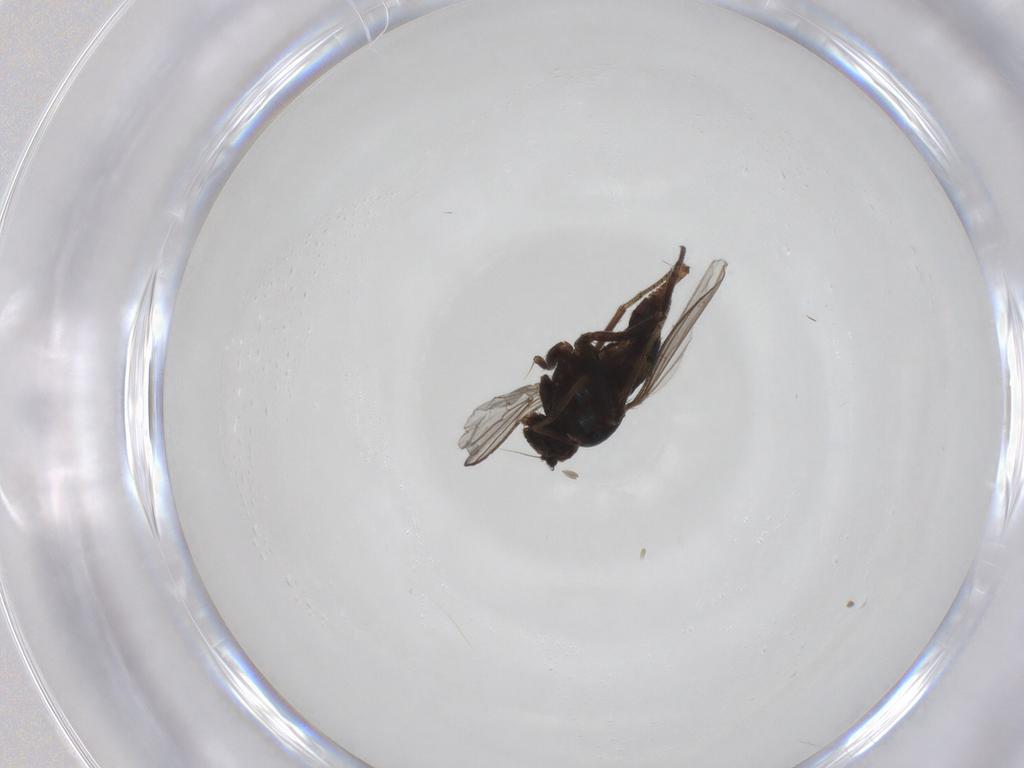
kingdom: Animalia
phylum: Arthropoda
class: Insecta
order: Diptera
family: Dolichopodidae
